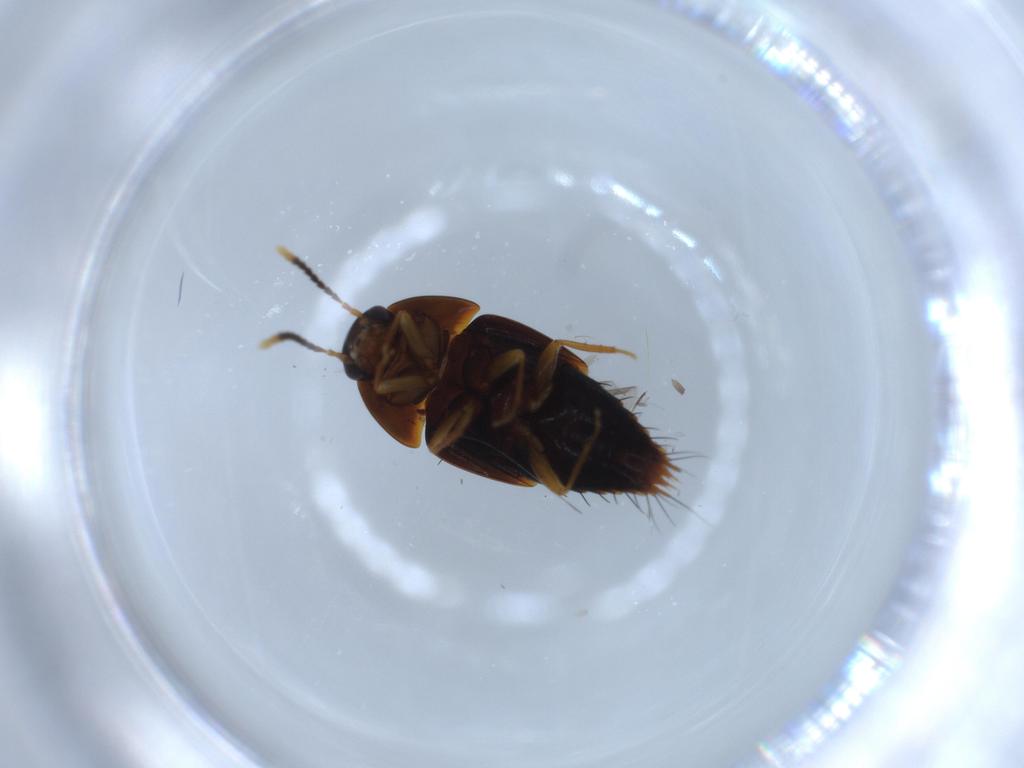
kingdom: Animalia
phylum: Arthropoda
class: Insecta
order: Coleoptera
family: Staphylinidae
